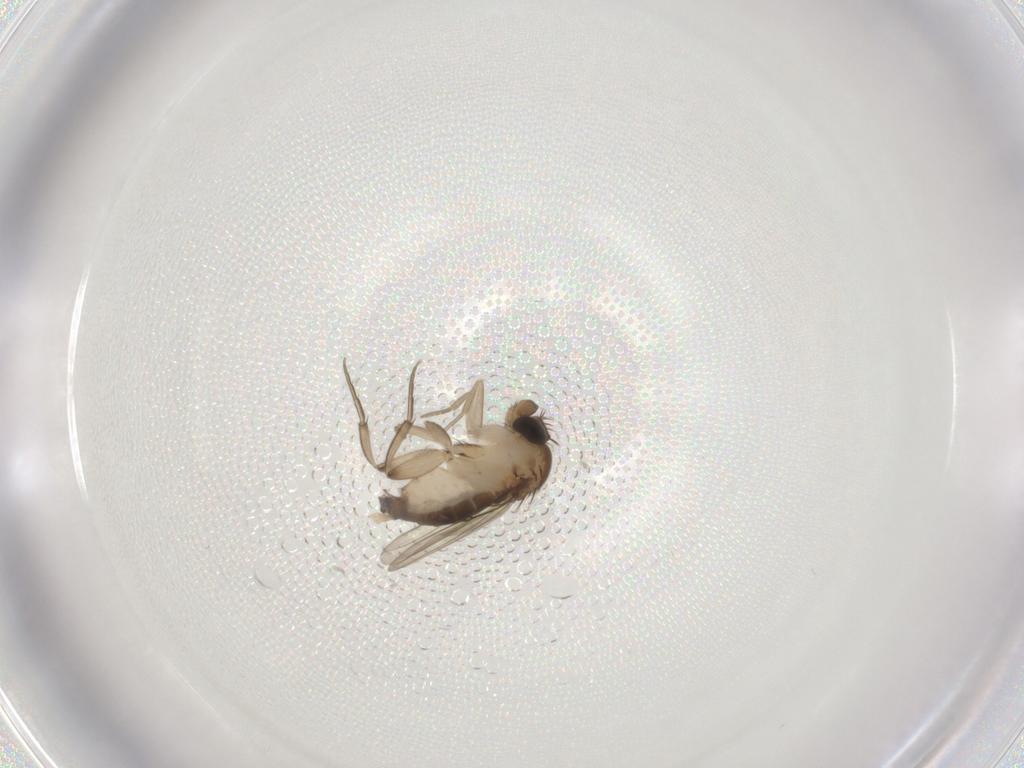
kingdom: Animalia
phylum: Arthropoda
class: Insecta
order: Diptera
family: Phoridae
